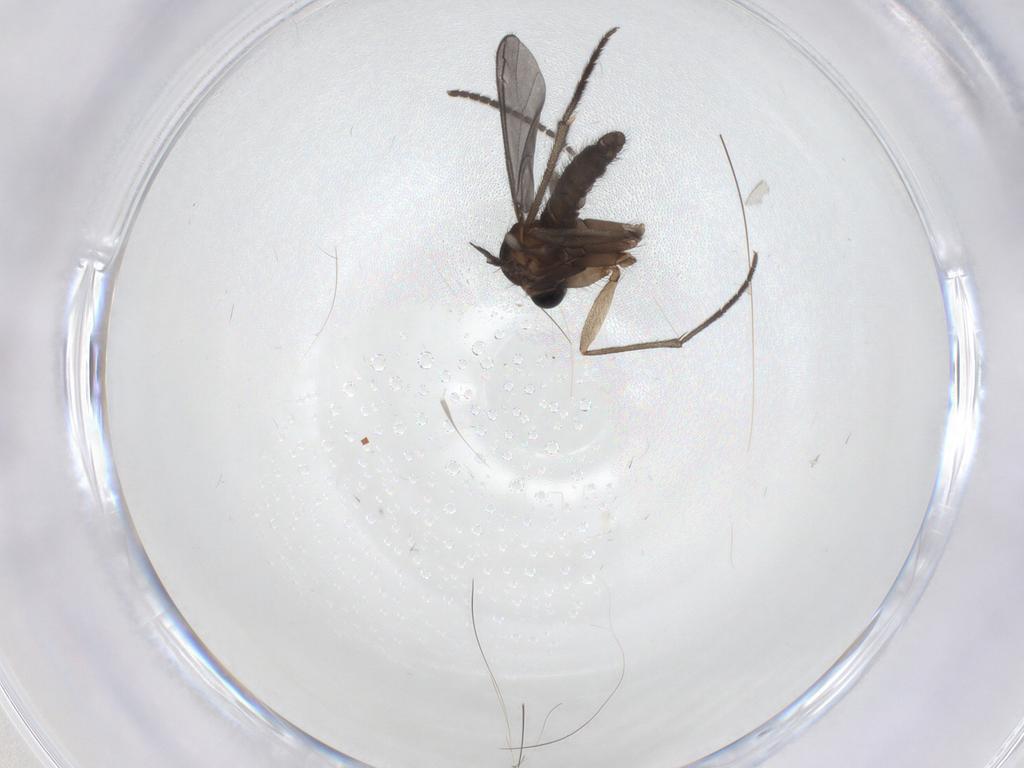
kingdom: Animalia
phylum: Arthropoda
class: Insecta
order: Diptera
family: Sciaridae
